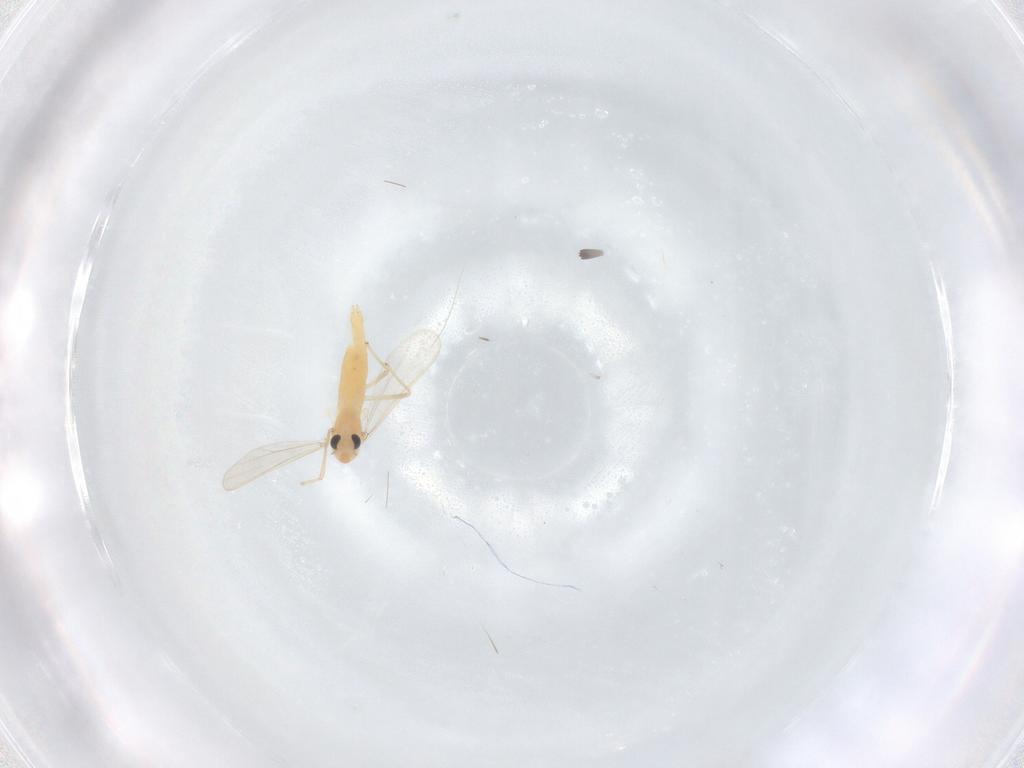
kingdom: Animalia
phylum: Arthropoda
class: Insecta
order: Diptera
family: Chironomidae
